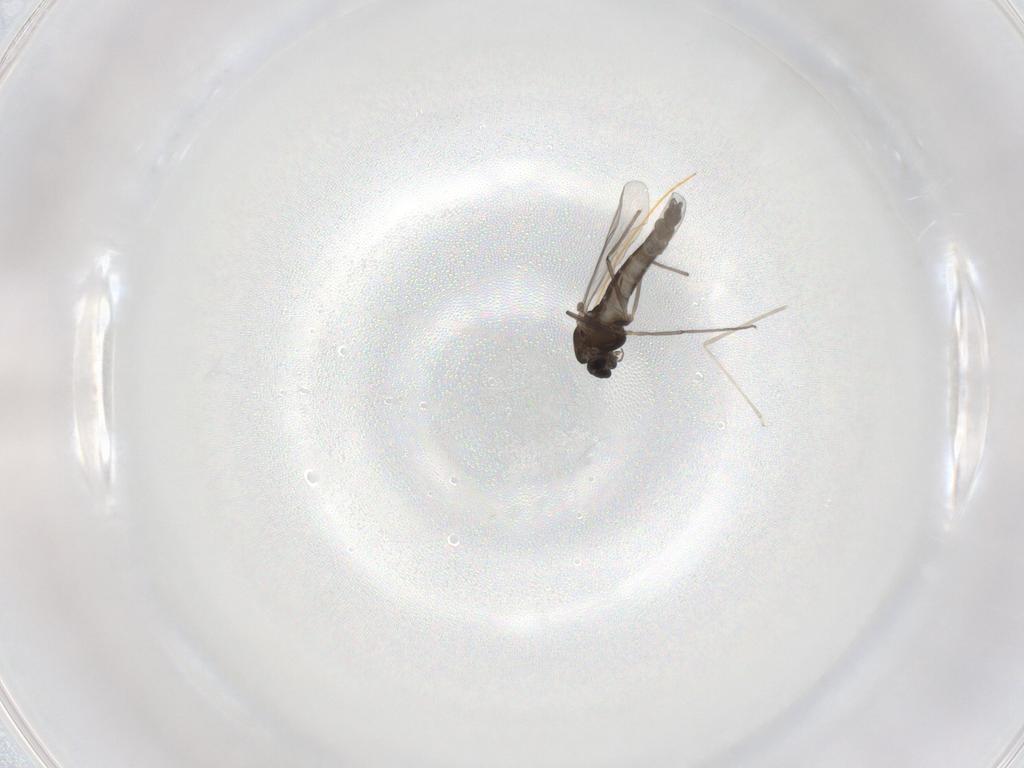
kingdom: Animalia
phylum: Arthropoda
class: Insecta
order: Diptera
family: Chironomidae
